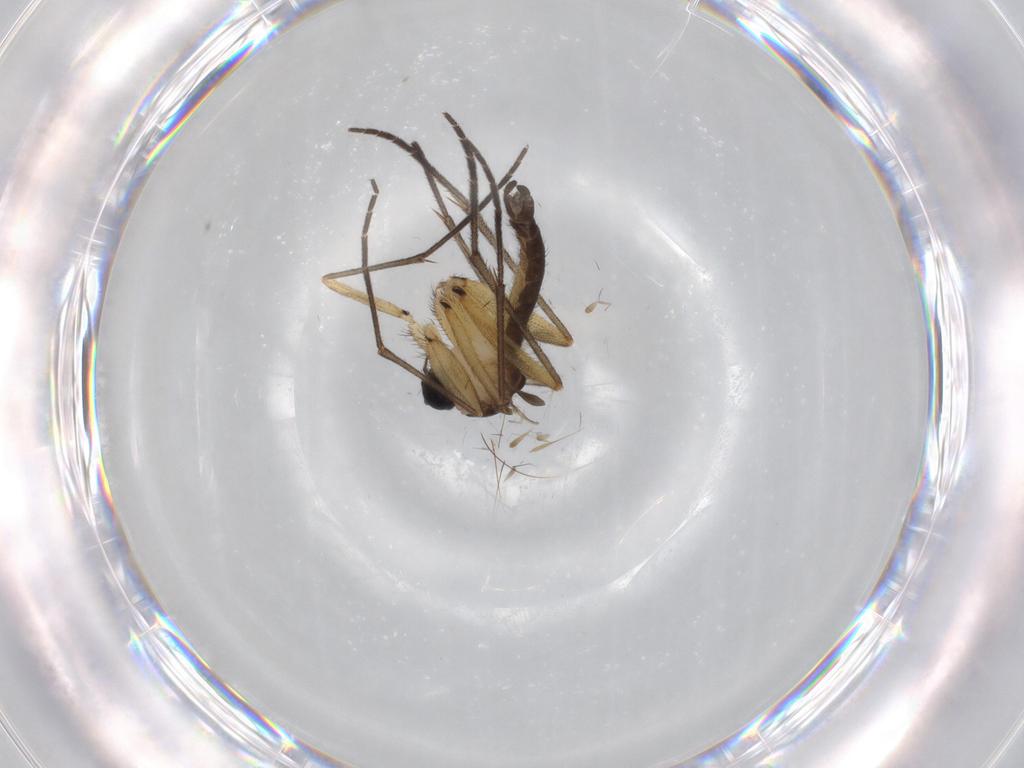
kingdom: Animalia
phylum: Arthropoda
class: Insecta
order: Diptera
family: Sciaridae
